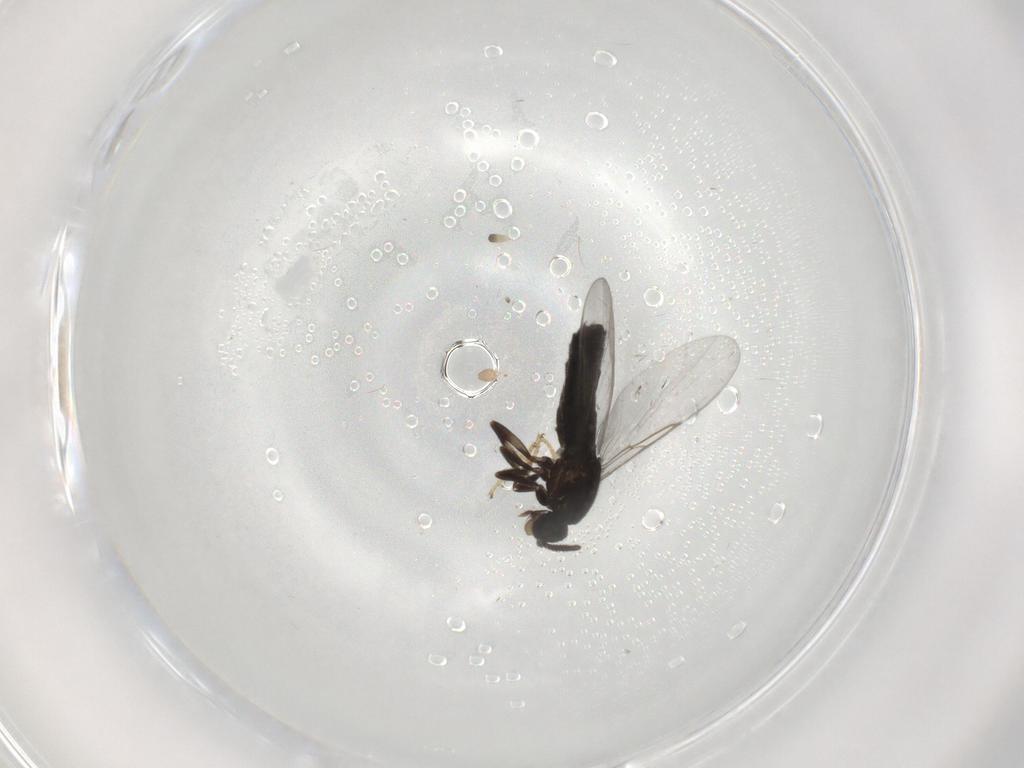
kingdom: Animalia
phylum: Arthropoda
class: Insecta
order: Diptera
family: Scatopsidae
